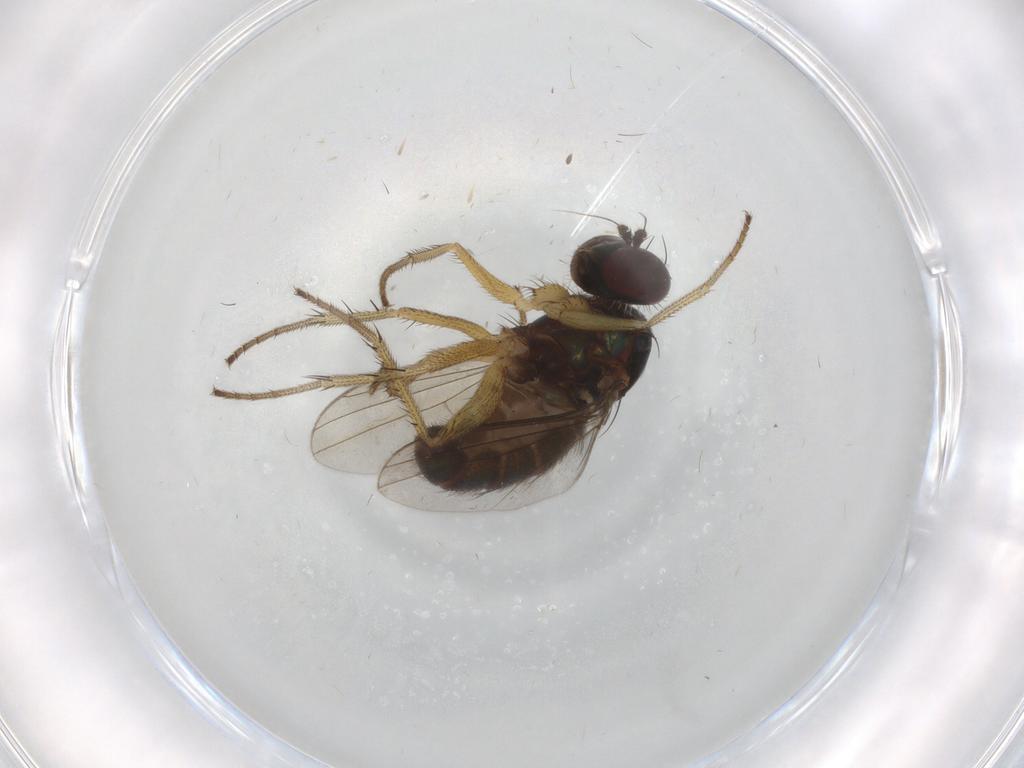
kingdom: Animalia
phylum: Arthropoda
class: Insecta
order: Diptera
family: Dolichopodidae
